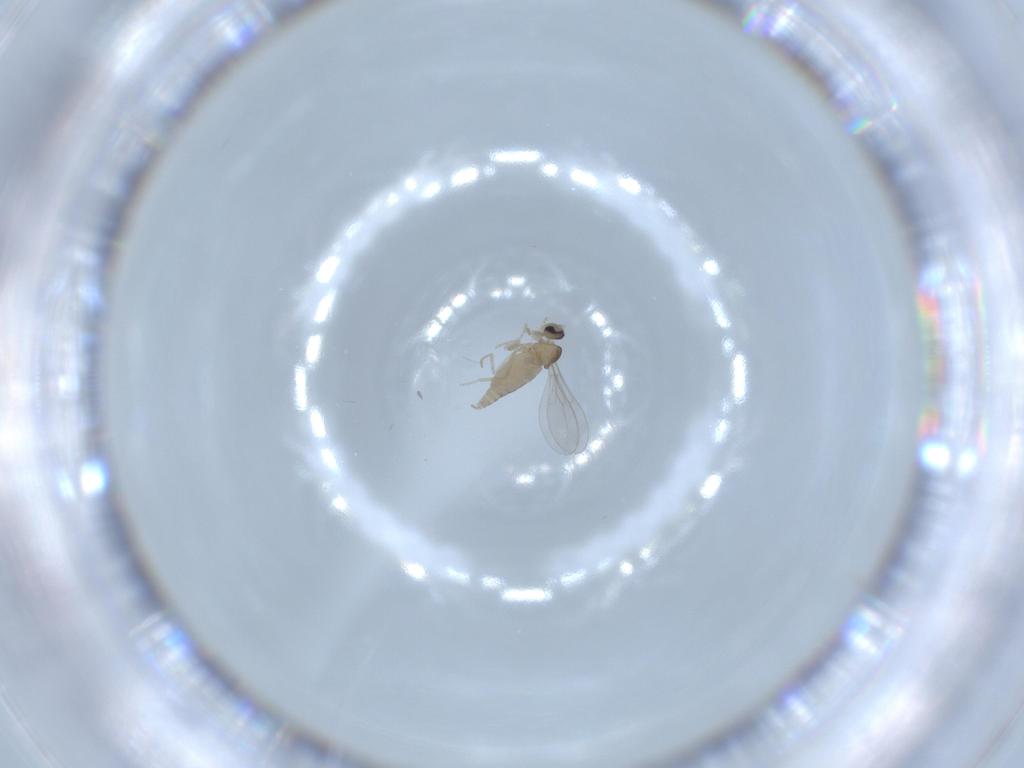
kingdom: Animalia
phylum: Arthropoda
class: Insecta
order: Diptera
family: Cecidomyiidae
